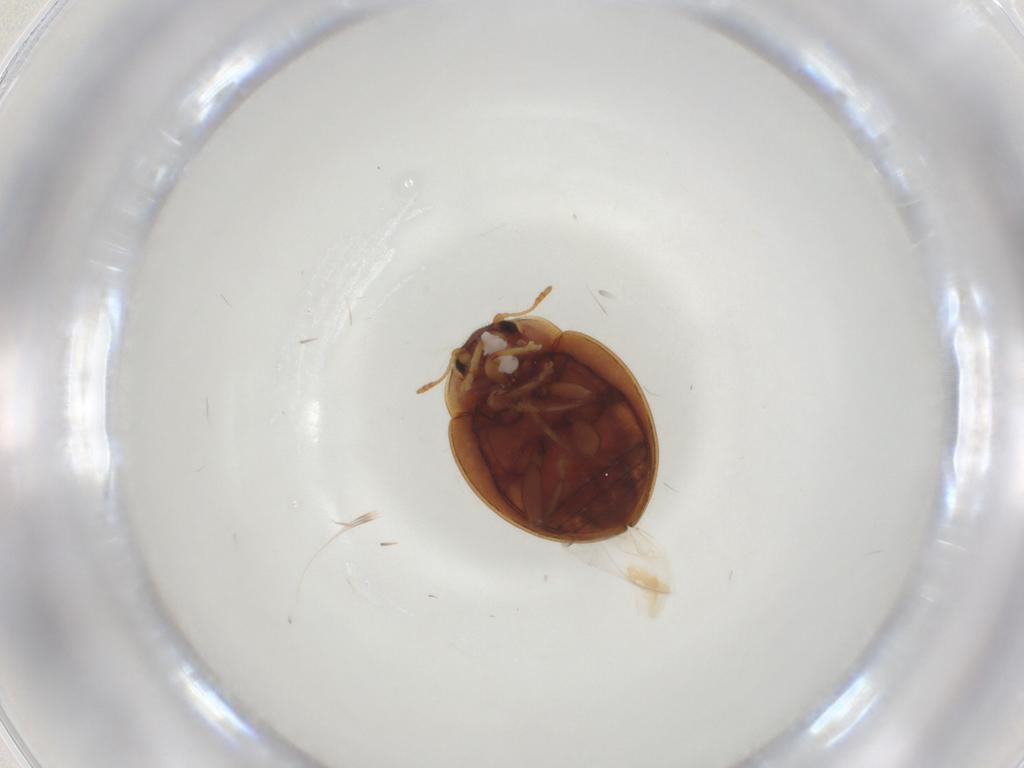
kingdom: Animalia
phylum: Arthropoda
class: Insecta
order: Coleoptera
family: Coccinellidae
